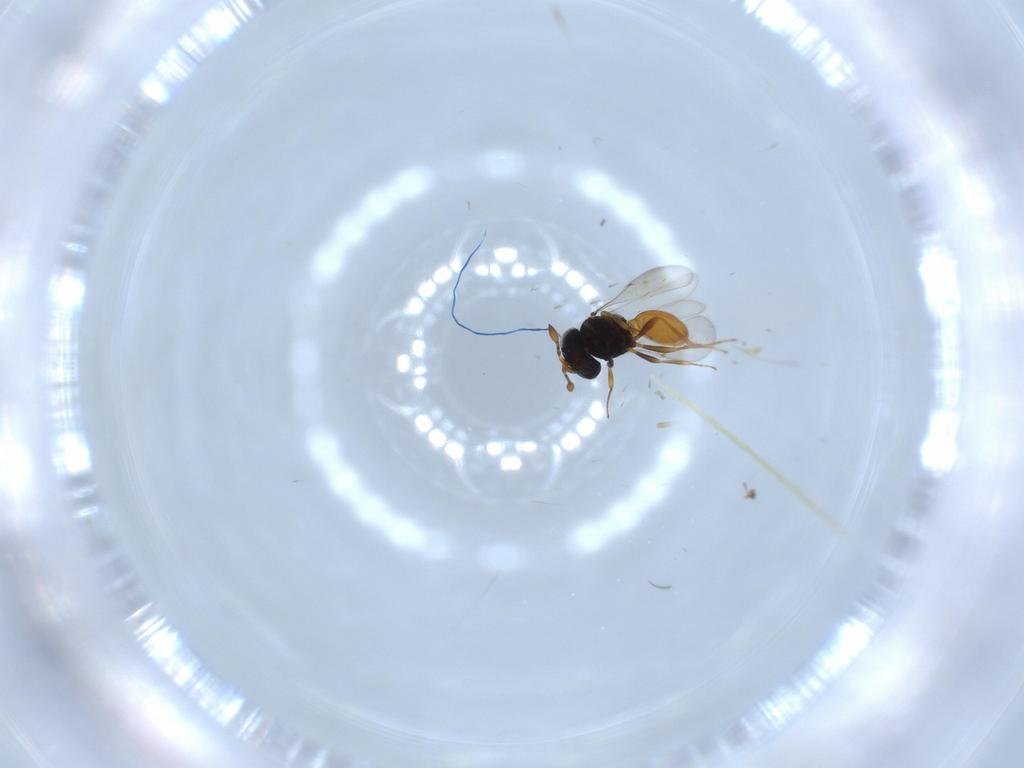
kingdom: Animalia
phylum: Arthropoda
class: Insecta
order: Hymenoptera
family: Scelionidae
